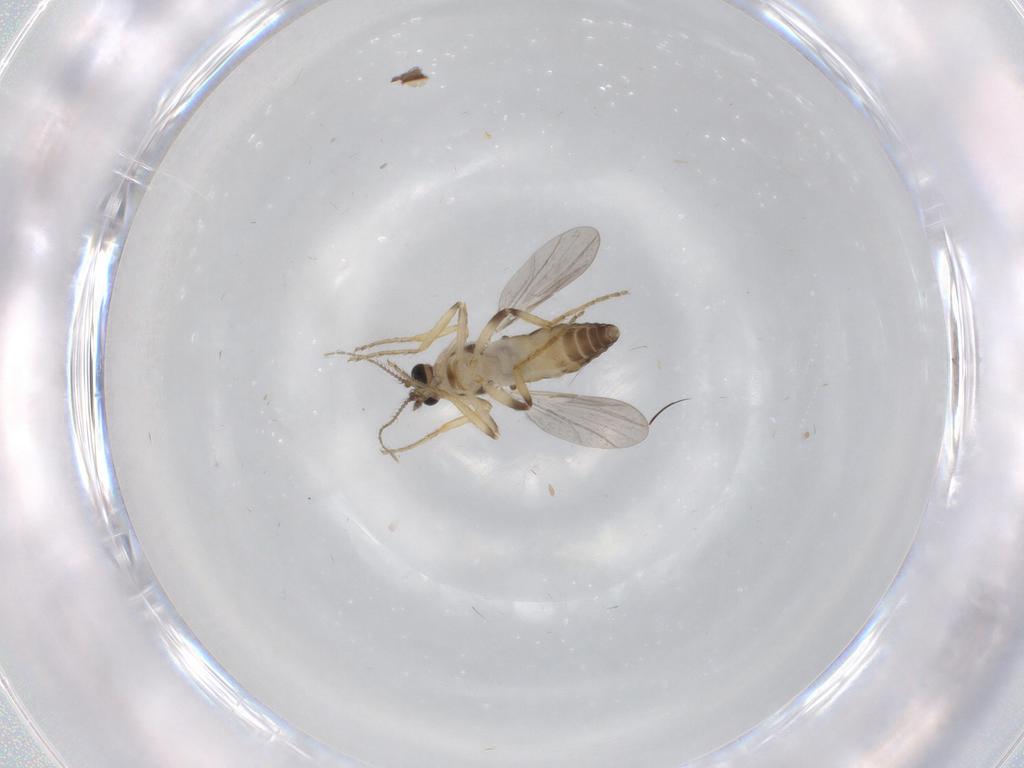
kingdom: Animalia
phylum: Arthropoda
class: Insecta
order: Diptera
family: Ceratopogonidae
